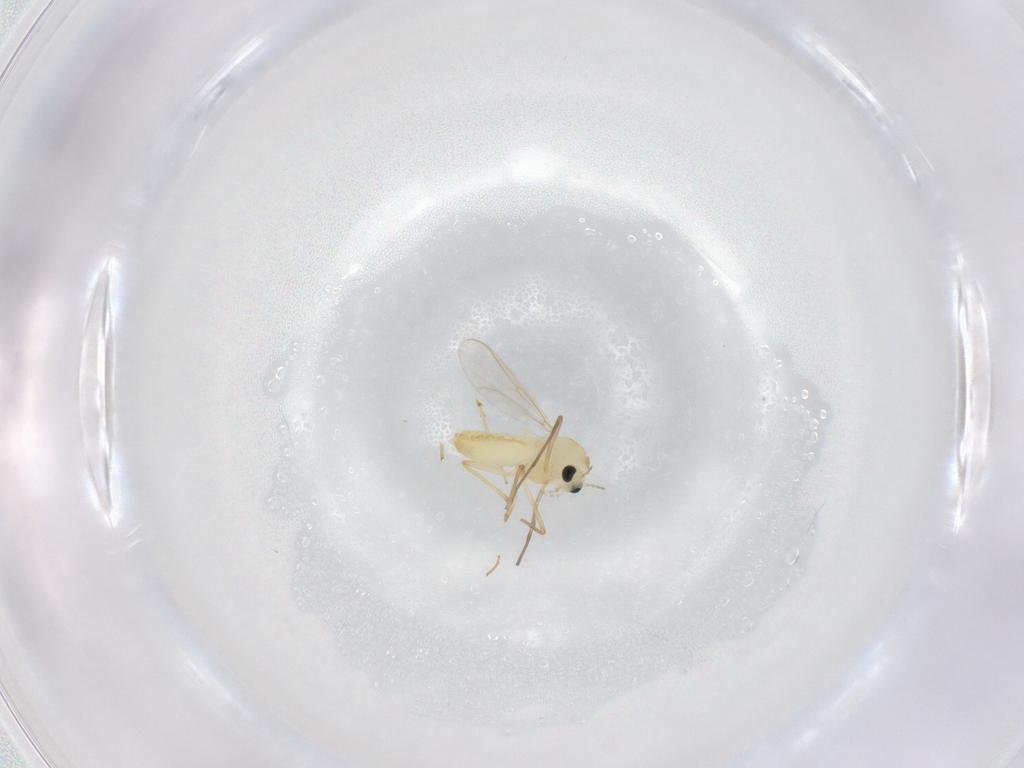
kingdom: Animalia
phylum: Arthropoda
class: Insecta
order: Diptera
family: Chironomidae
